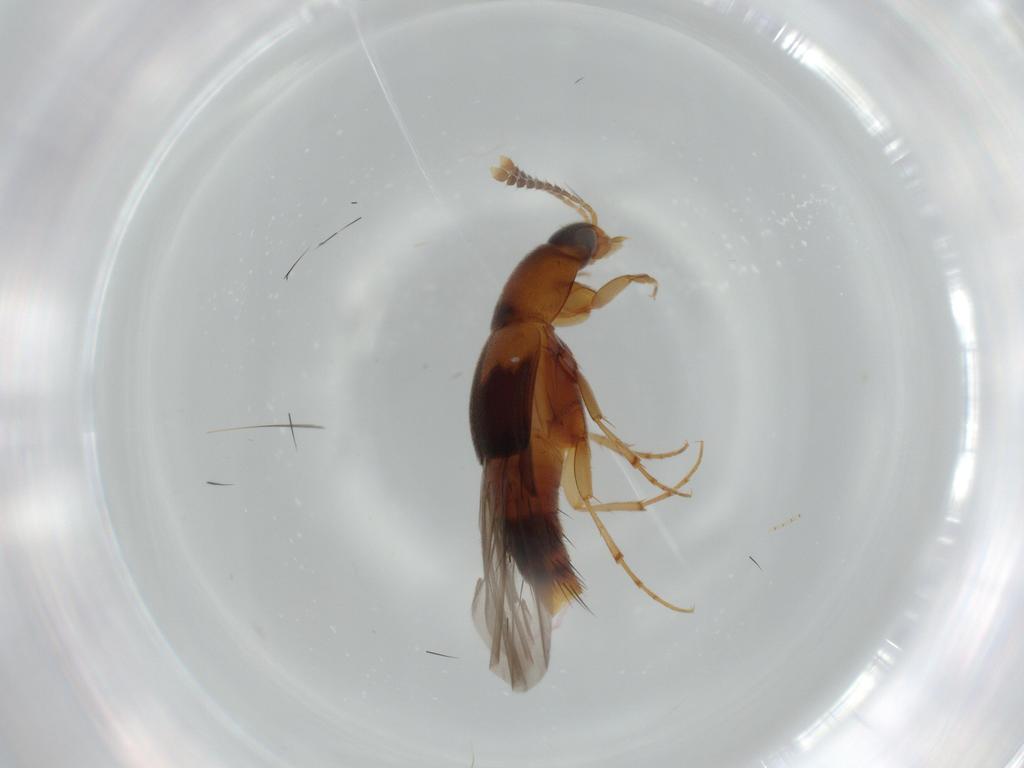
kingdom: Animalia
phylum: Arthropoda
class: Insecta
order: Coleoptera
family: Staphylinidae
